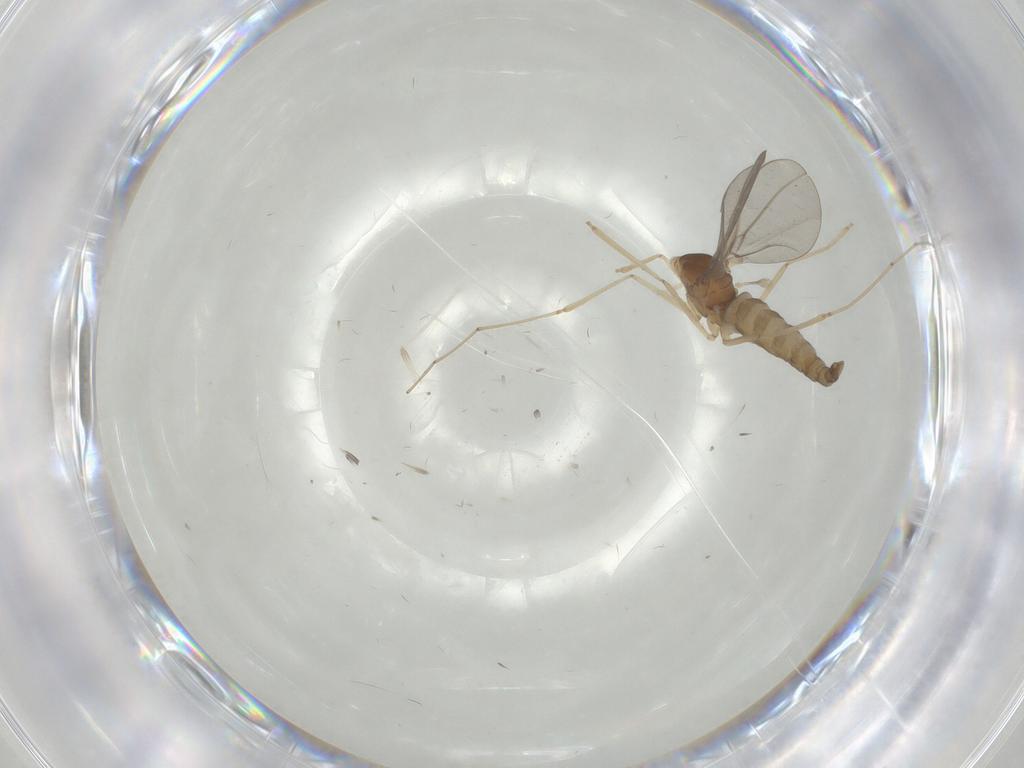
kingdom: Animalia
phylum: Arthropoda
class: Insecta
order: Diptera
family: Cecidomyiidae
